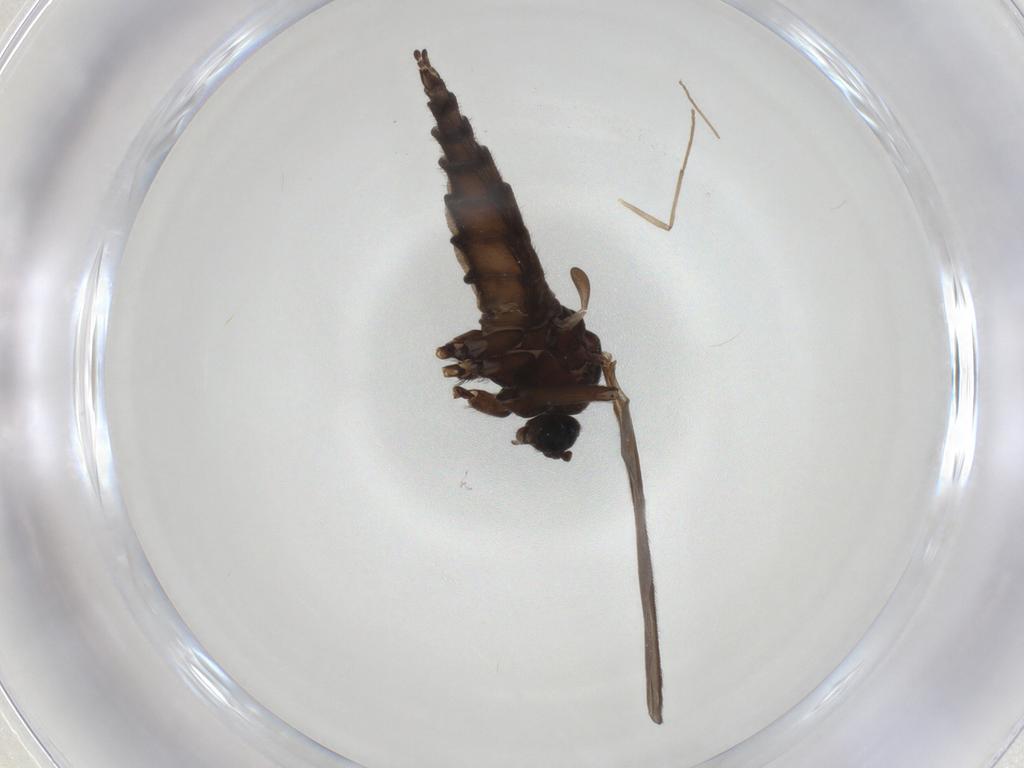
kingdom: Animalia
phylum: Arthropoda
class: Insecta
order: Diptera
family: Sciaridae
